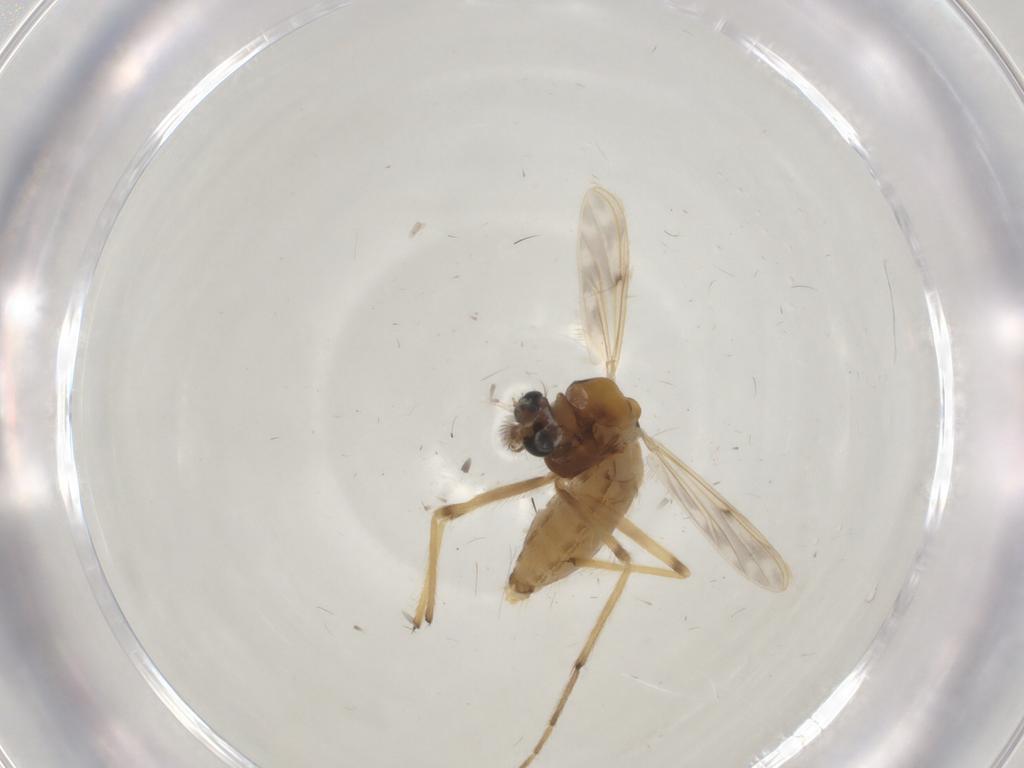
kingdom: Animalia
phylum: Arthropoda
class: Insecta
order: Diptera
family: Chironomidae
